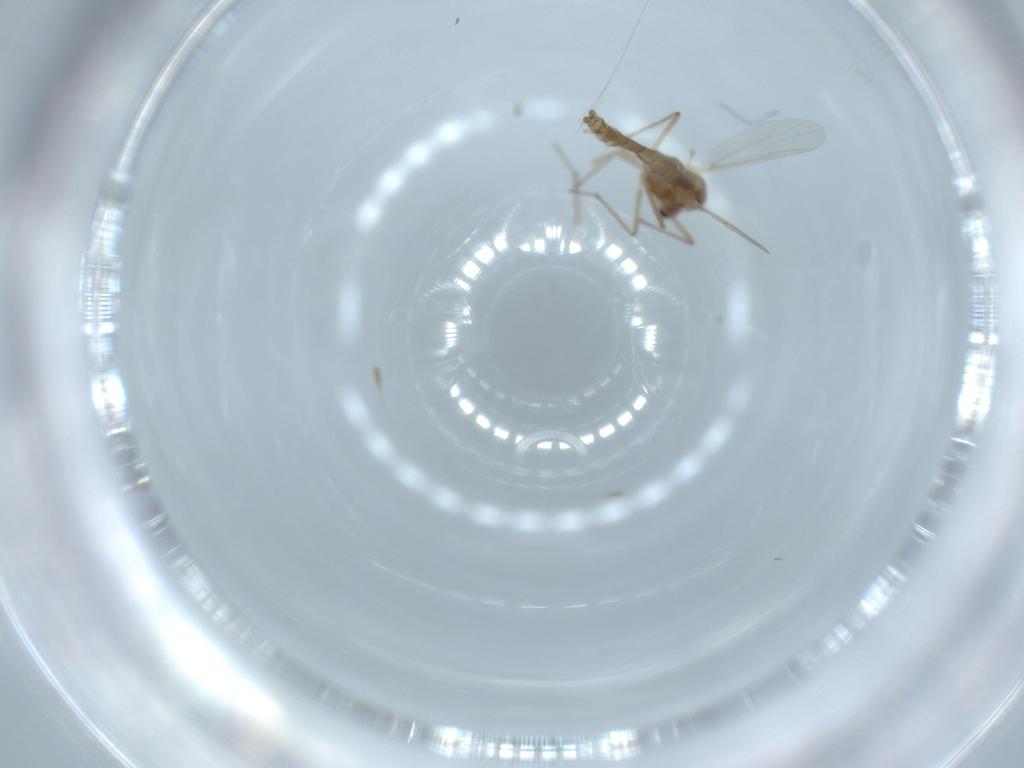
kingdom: Animalia
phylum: Arthropoda
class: Insecta
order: Diptera
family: Chironomidae
